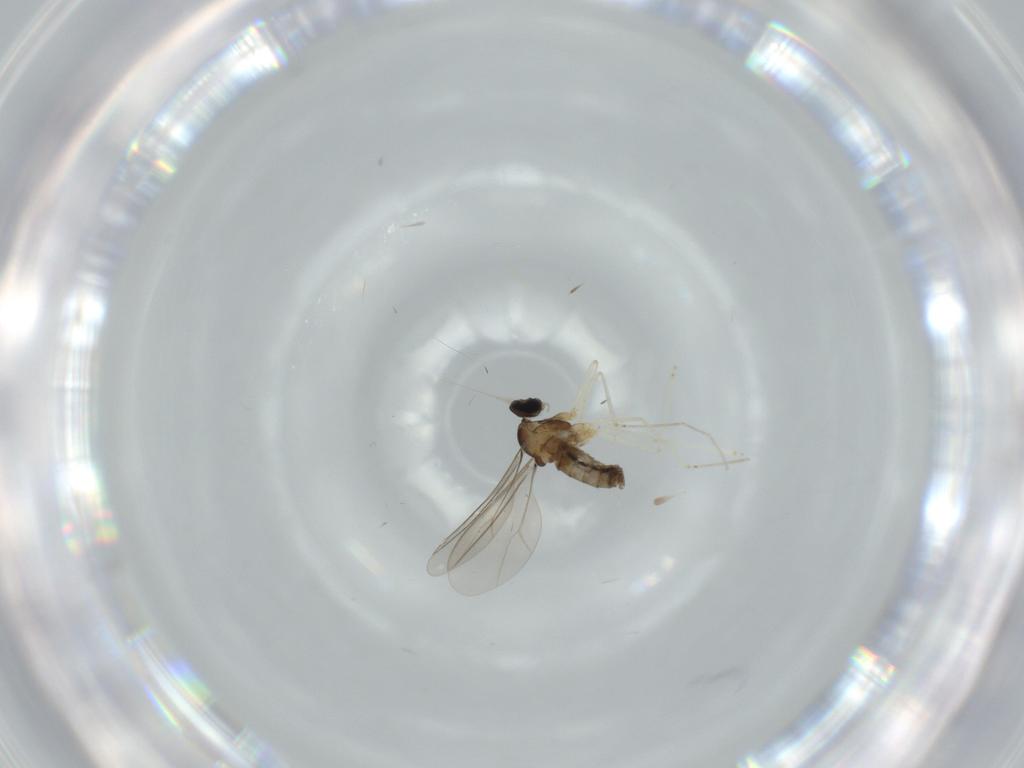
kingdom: Animalia
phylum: Arthropoda
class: Insecta
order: Diptera
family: Cecidomyiidae
